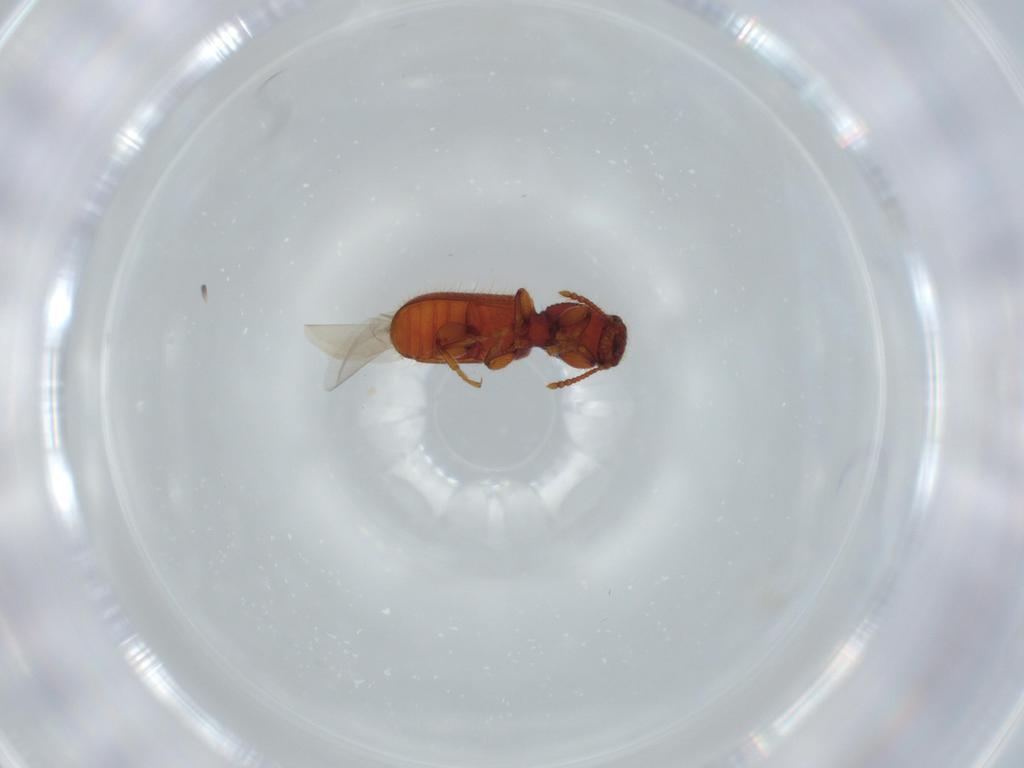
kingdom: Animalia
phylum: Arthropoda
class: Insecta
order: Coleoptera
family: Thanerocleridae
